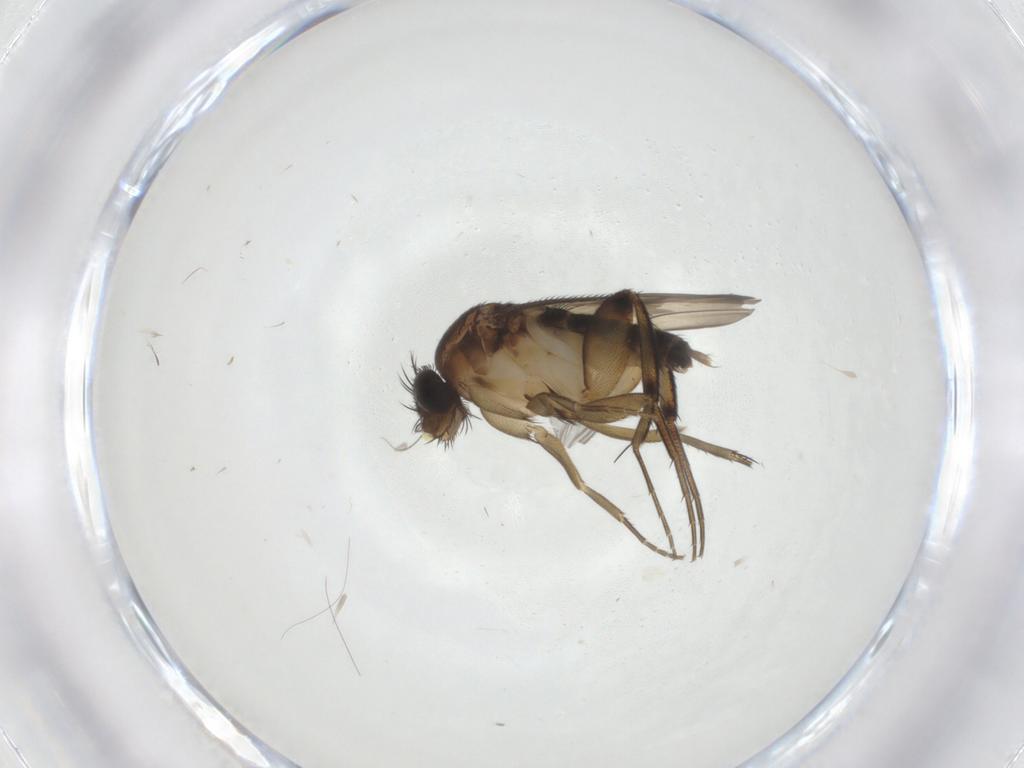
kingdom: Animalia
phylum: Arthropoda
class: Insecta
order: Diptera
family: Phoridae
